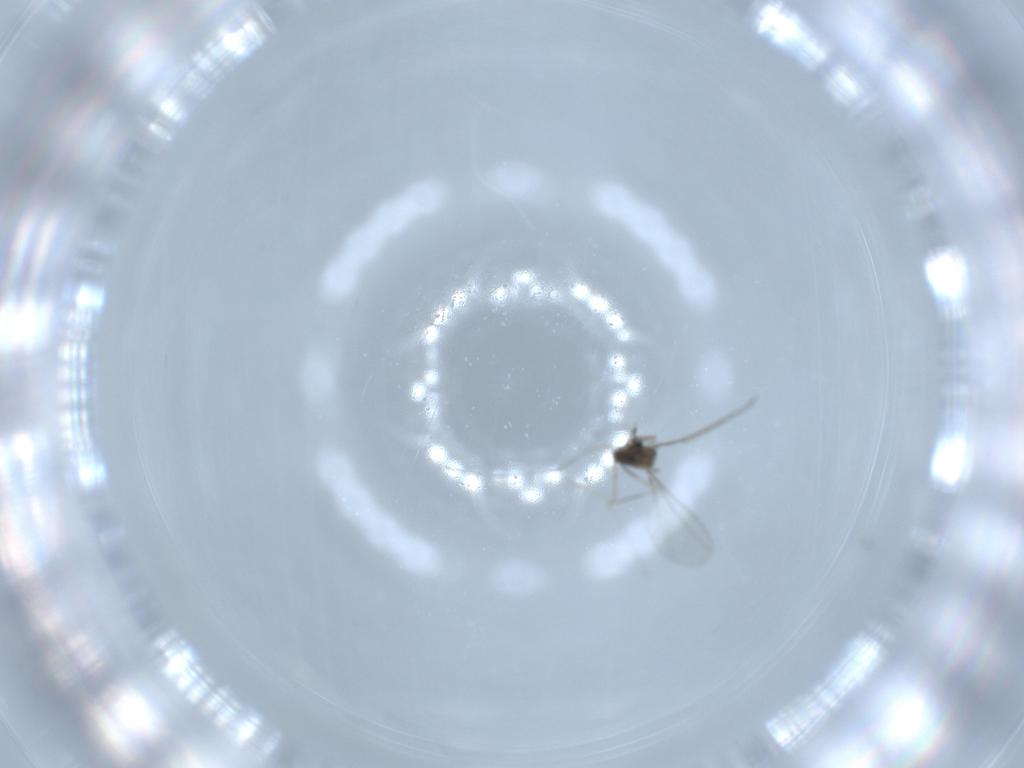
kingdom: Animalia
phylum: Arthropoda
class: Insecta
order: Diptera
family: Cecidomyiidae
